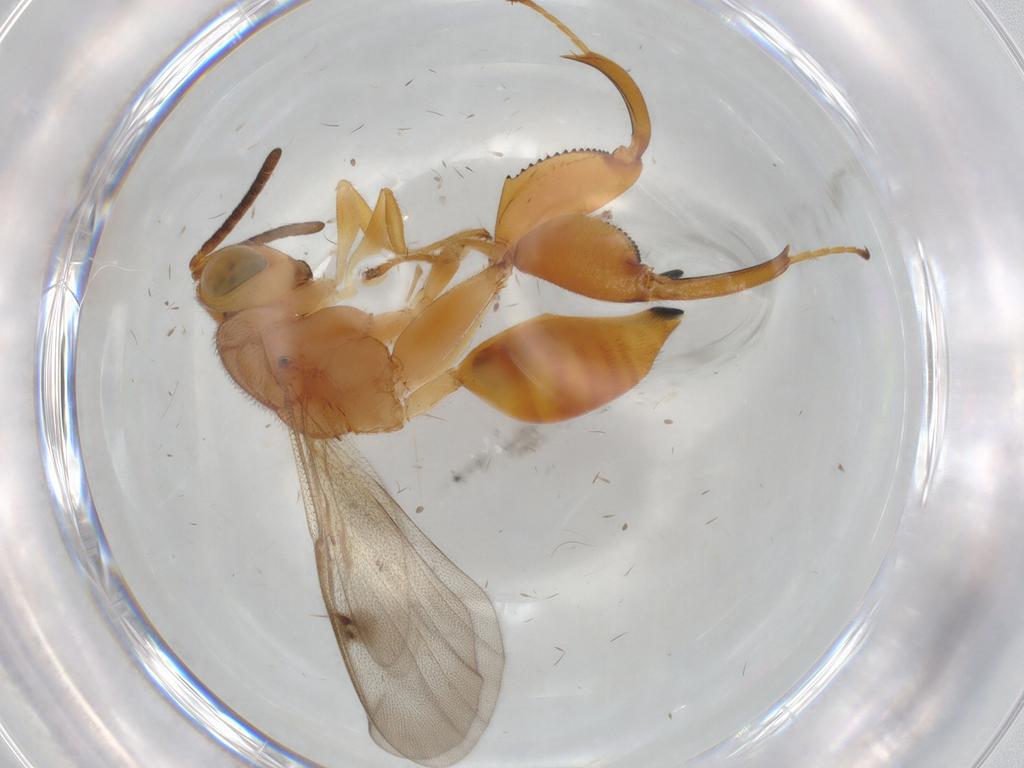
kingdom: Animalia
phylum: Arthropoda
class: Insecta
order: Hymenoptera
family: Chalcididae
